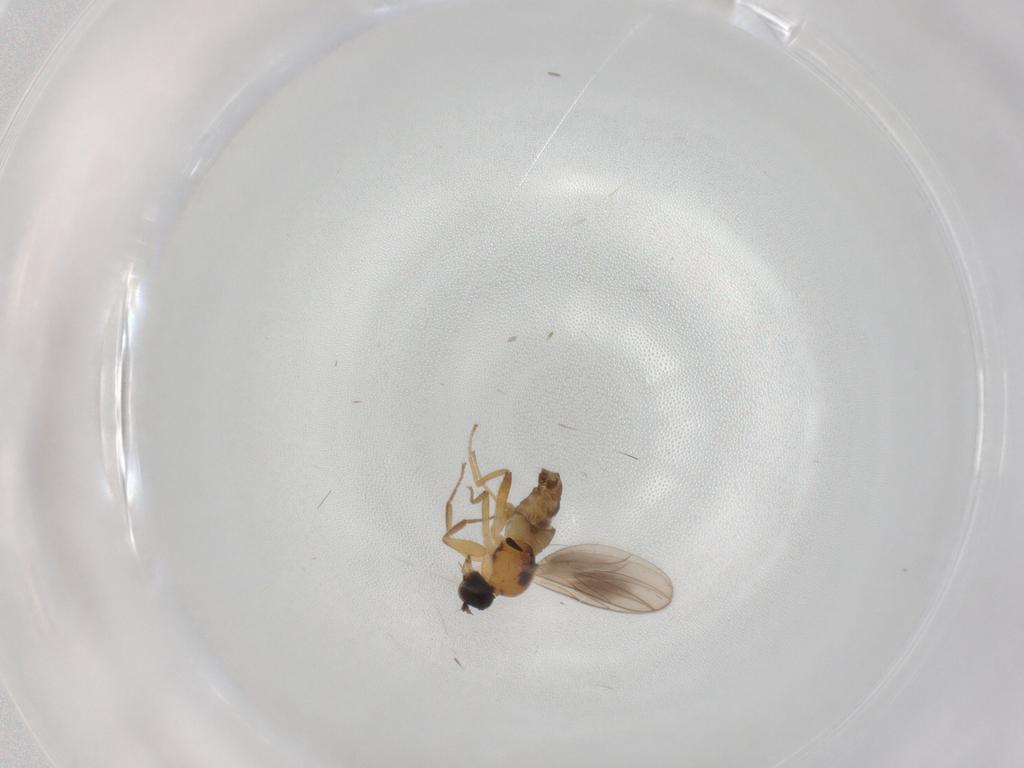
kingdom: Animalia
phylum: Arthropoda
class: Insecta
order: Diptera
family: Hybotidae
